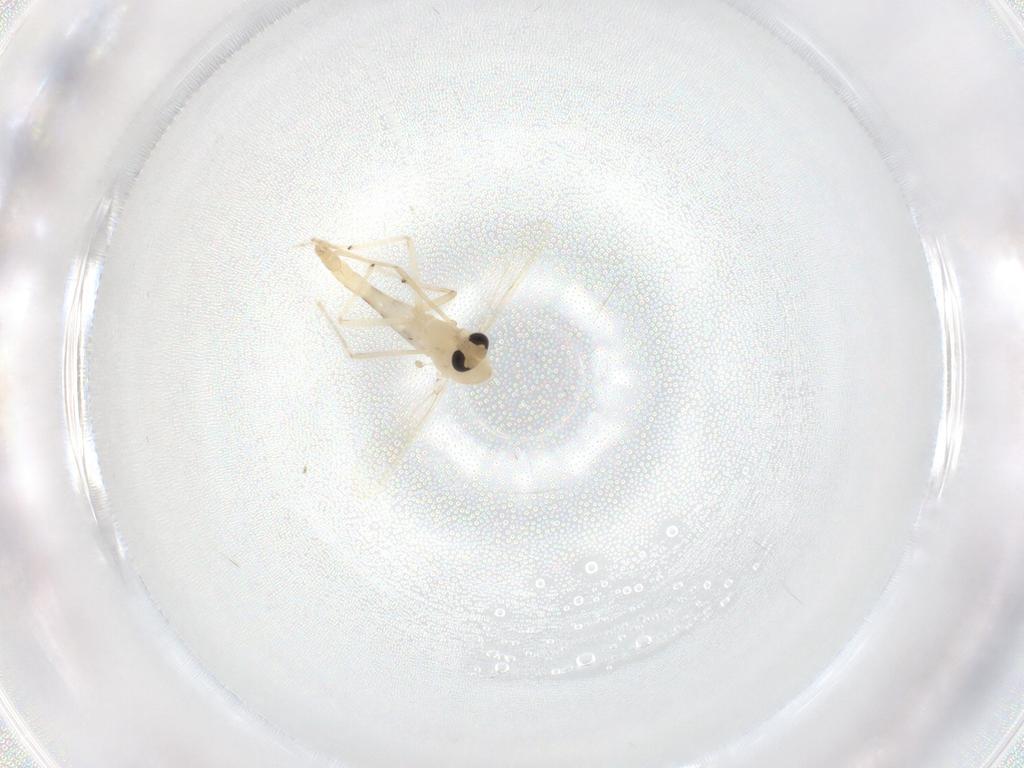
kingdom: Animalia
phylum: Arthropoda
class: Insecta
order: Diptera
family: Chironomidae
